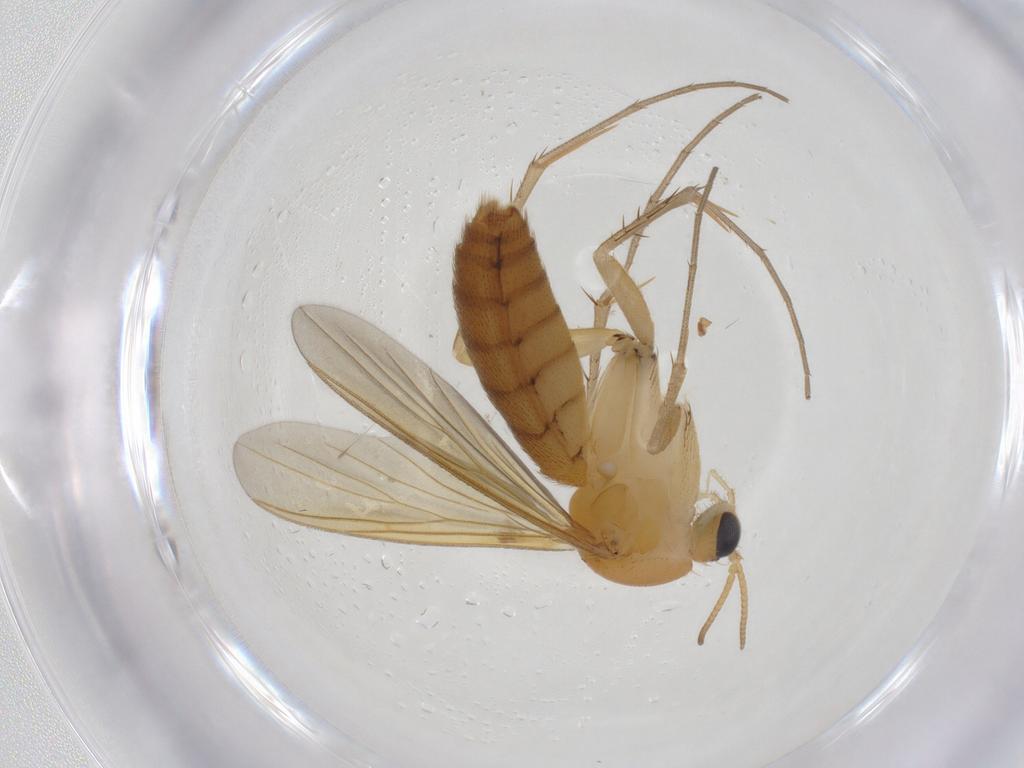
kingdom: Animalia
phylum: Arthropoda
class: Insecta
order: Diptera
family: Mycetophilidae
